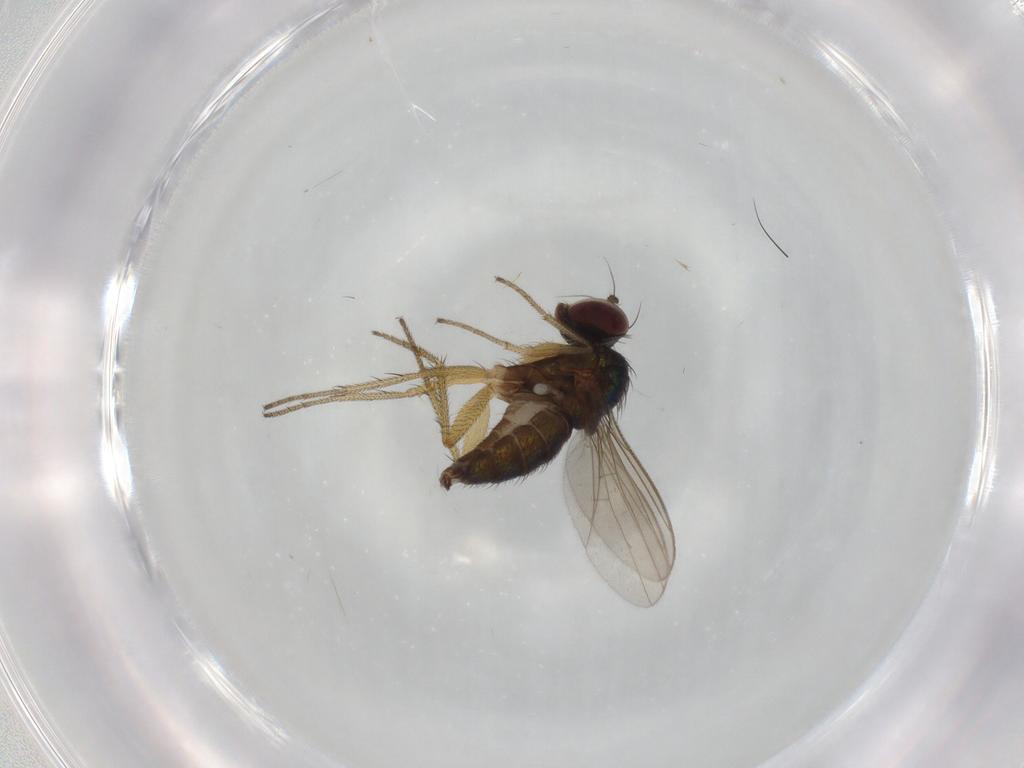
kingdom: Animalia
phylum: Arthropoda
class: Insecta
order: Diptera
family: Dolichopodidae
